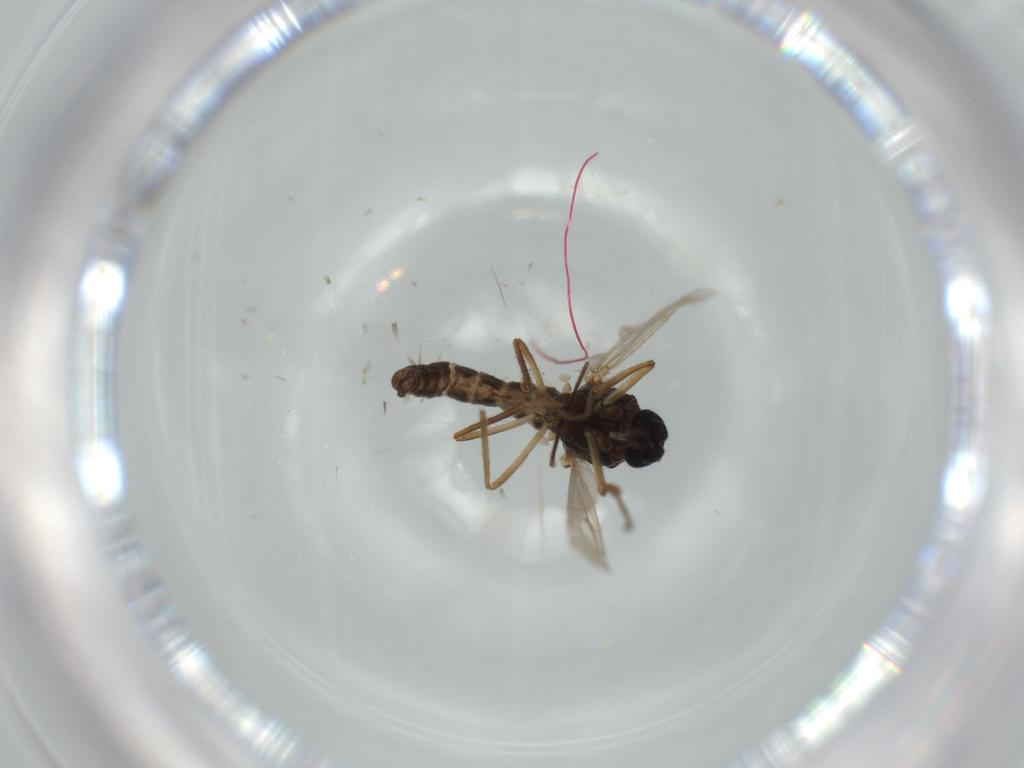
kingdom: Animalia
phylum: Arthropoda
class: Insecta
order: Diptera
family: Ceratopogonidae
